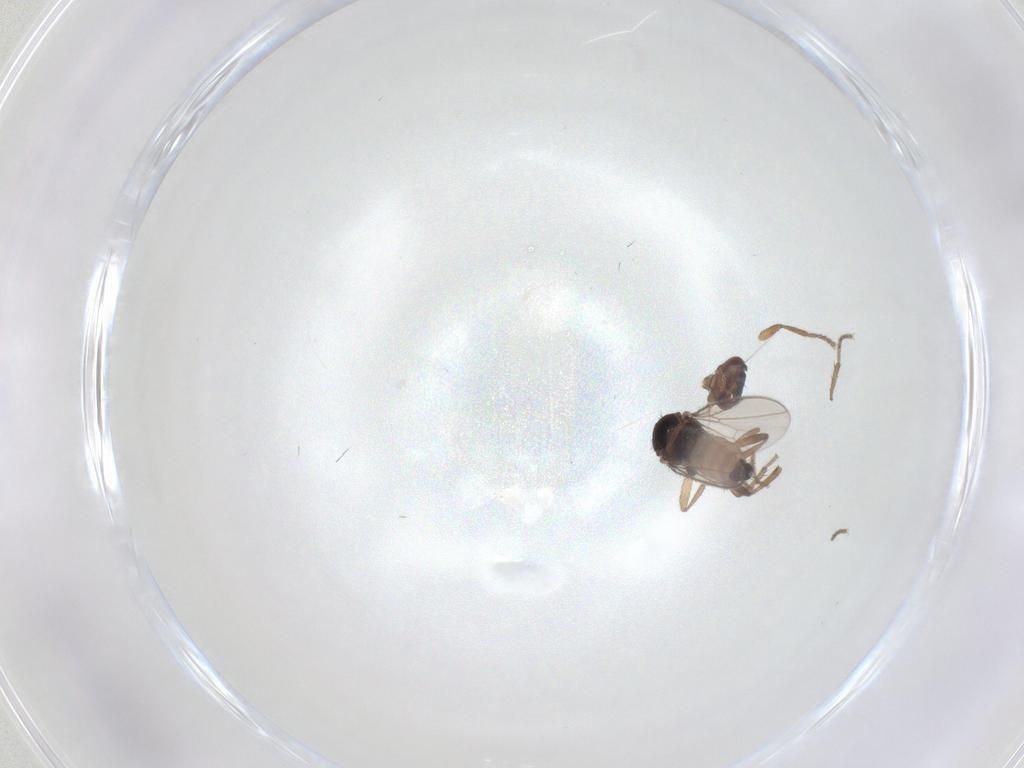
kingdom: Animalia
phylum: Arthropoda
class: Insecta
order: Diptera
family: Sphaeroceridae
